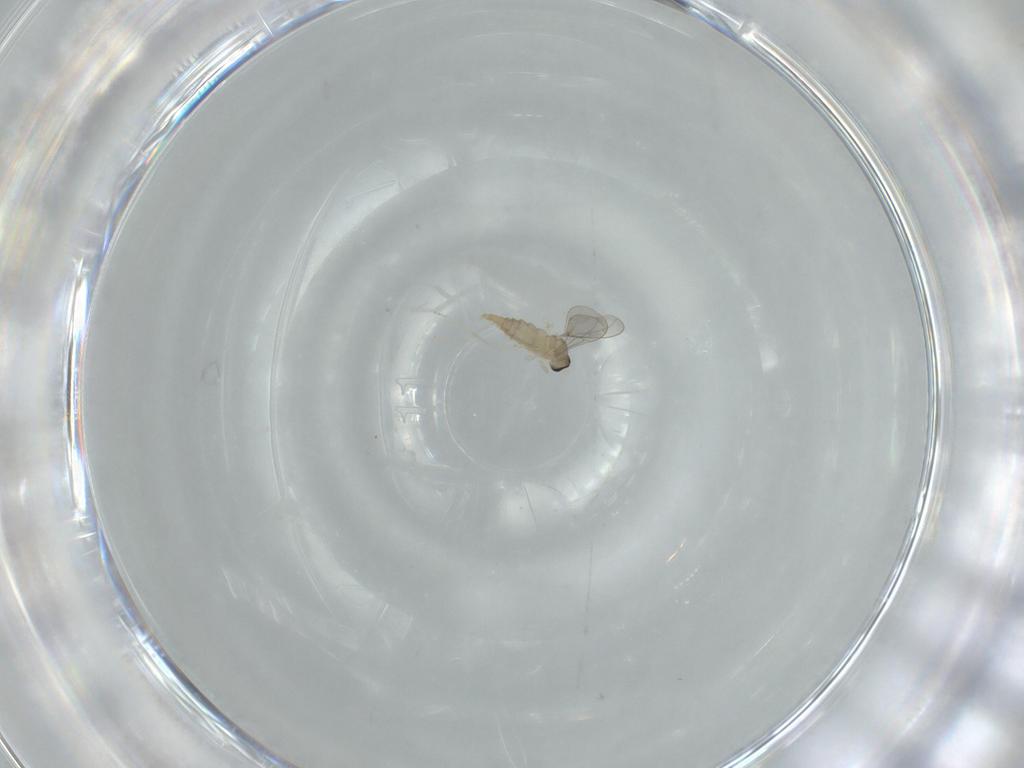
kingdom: Animalia
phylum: Arthropoda
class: Insecta
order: Diptera
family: Cecidomyiidae
